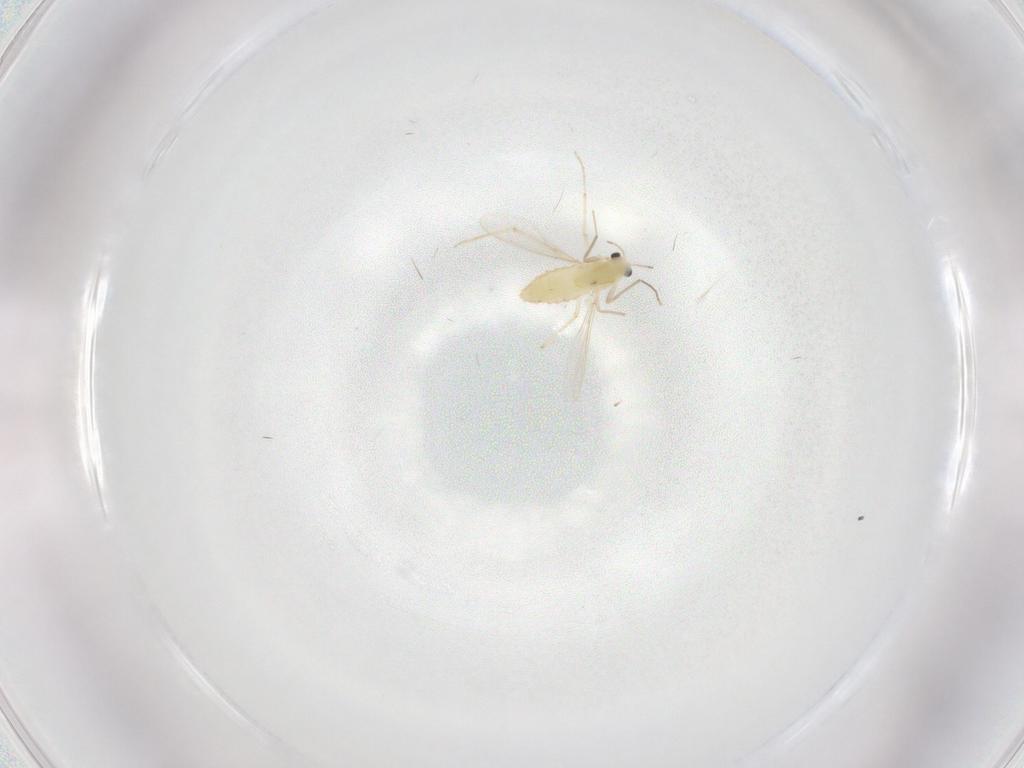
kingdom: Animalia
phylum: Arthropoda
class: Insecta
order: Diptera
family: Chironomidae
